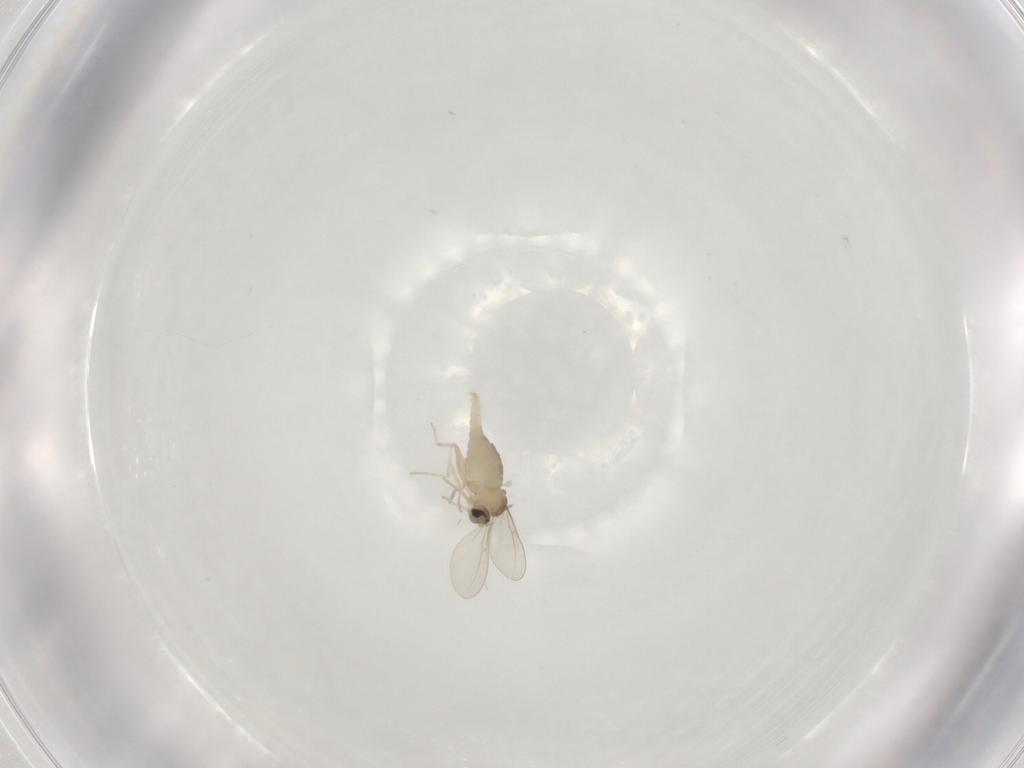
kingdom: Animalia
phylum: Arthropoda
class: Insecta
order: Diptera
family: Cecidomyiidae
